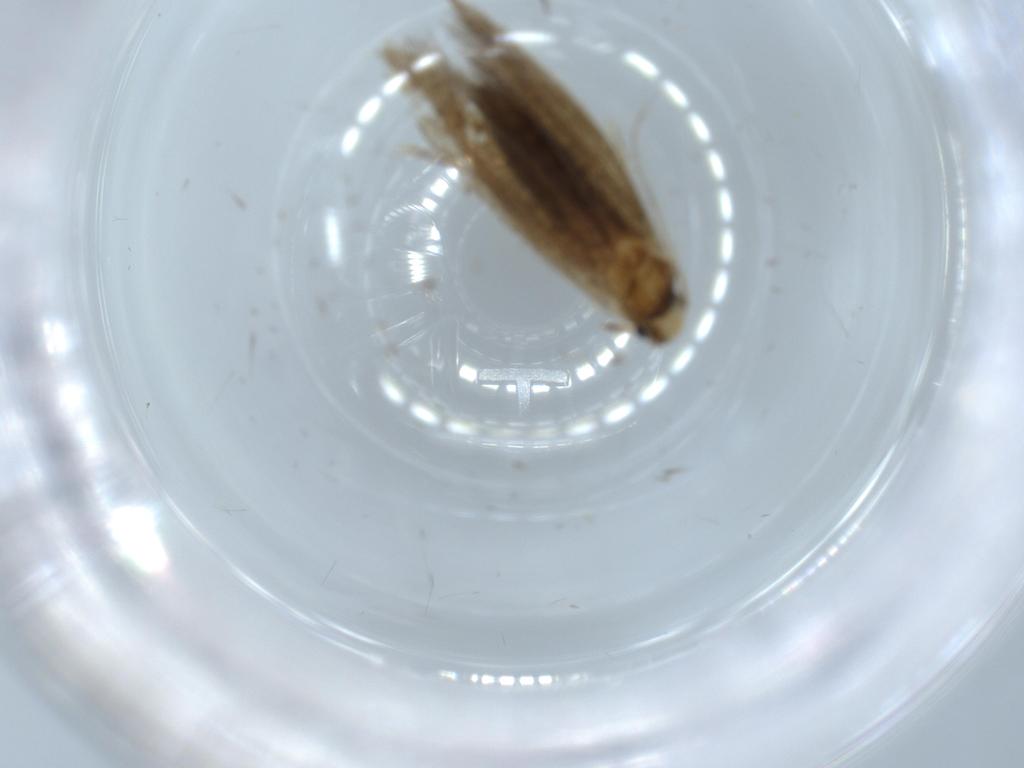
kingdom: Animalia
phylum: Arthropoda
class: Insecta
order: Lepidoptera
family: Tineidae
